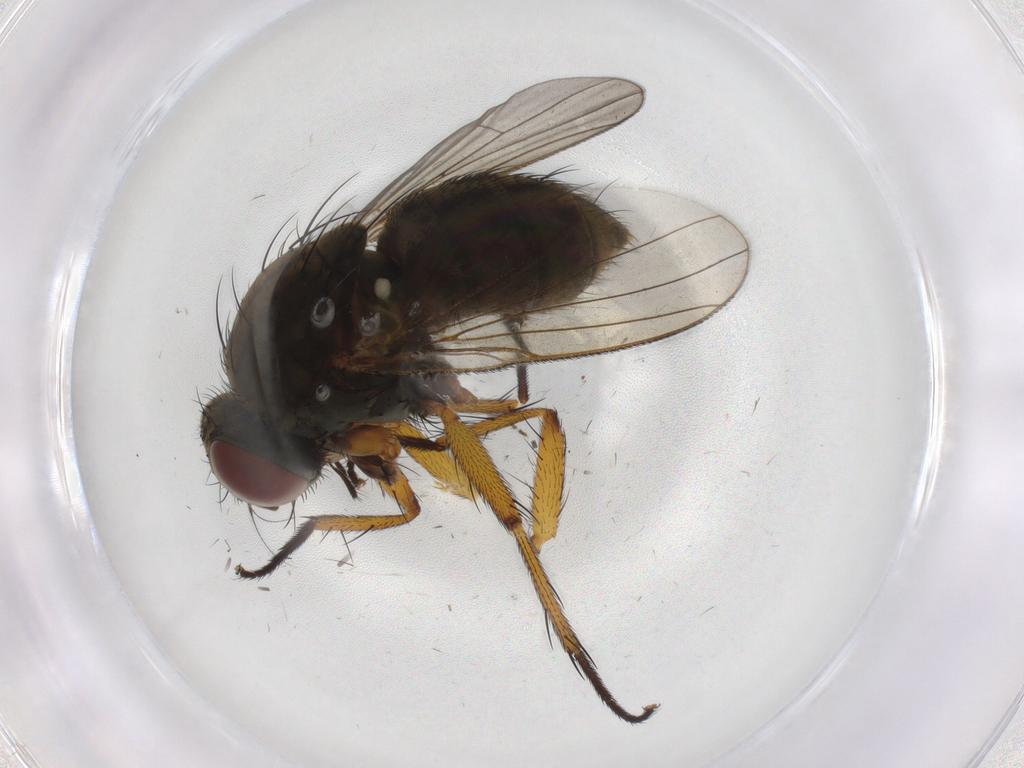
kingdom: Animalia
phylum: Arthropoda
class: Insecta
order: Diptera
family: Muscidae
